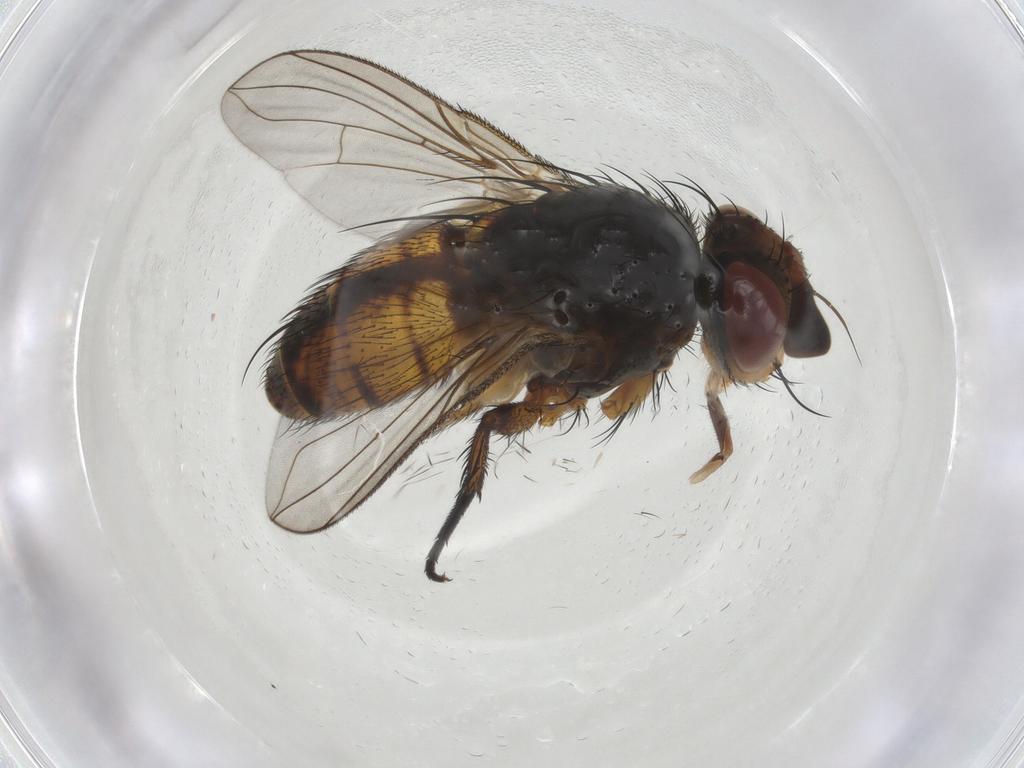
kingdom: Animalia
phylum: Arthropoda
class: Insecta
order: Diptera
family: Tachinidae
